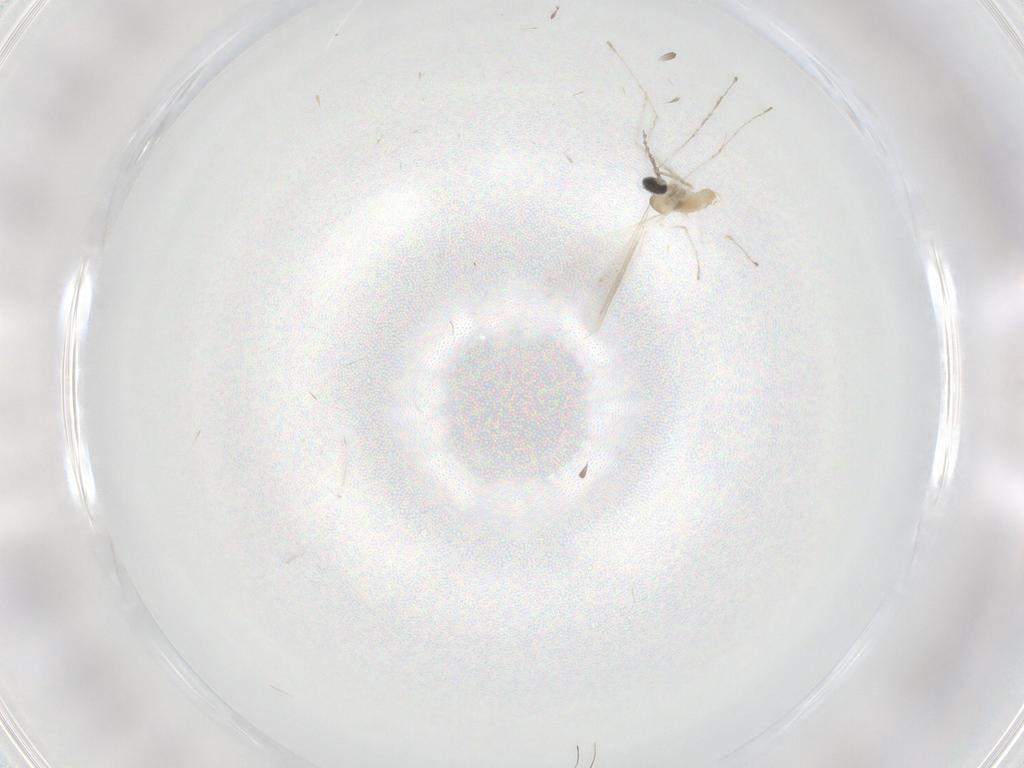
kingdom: Animalia
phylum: Arthropoda
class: Insecta
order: Diptera
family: Cecidomyiidae
